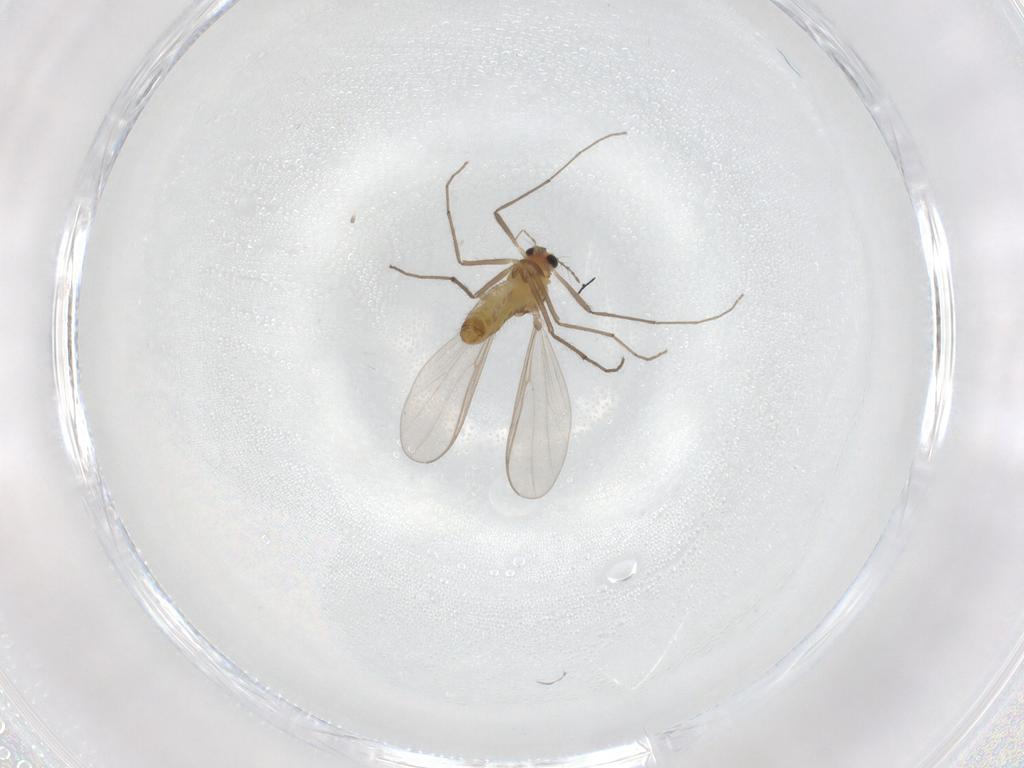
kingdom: Animalia
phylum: Arthropoda
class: Insecta
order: Diptera
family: Chironomidae
